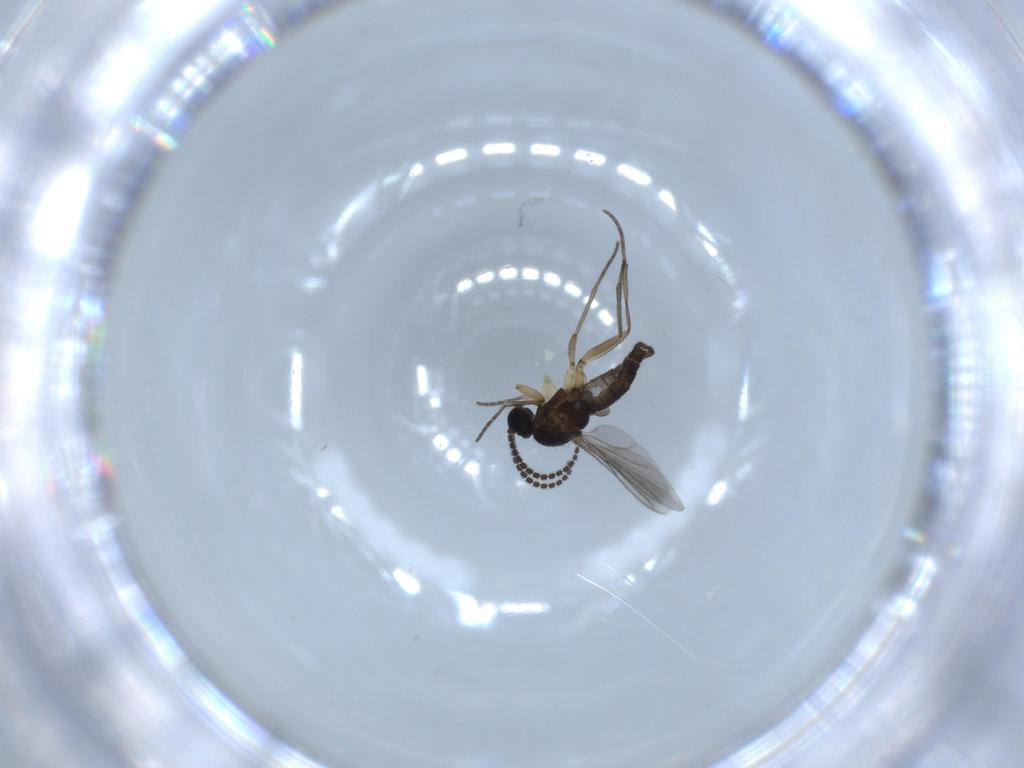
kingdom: Animalia
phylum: Arthropoda
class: Insecta
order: Diptera
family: Sciaridae
